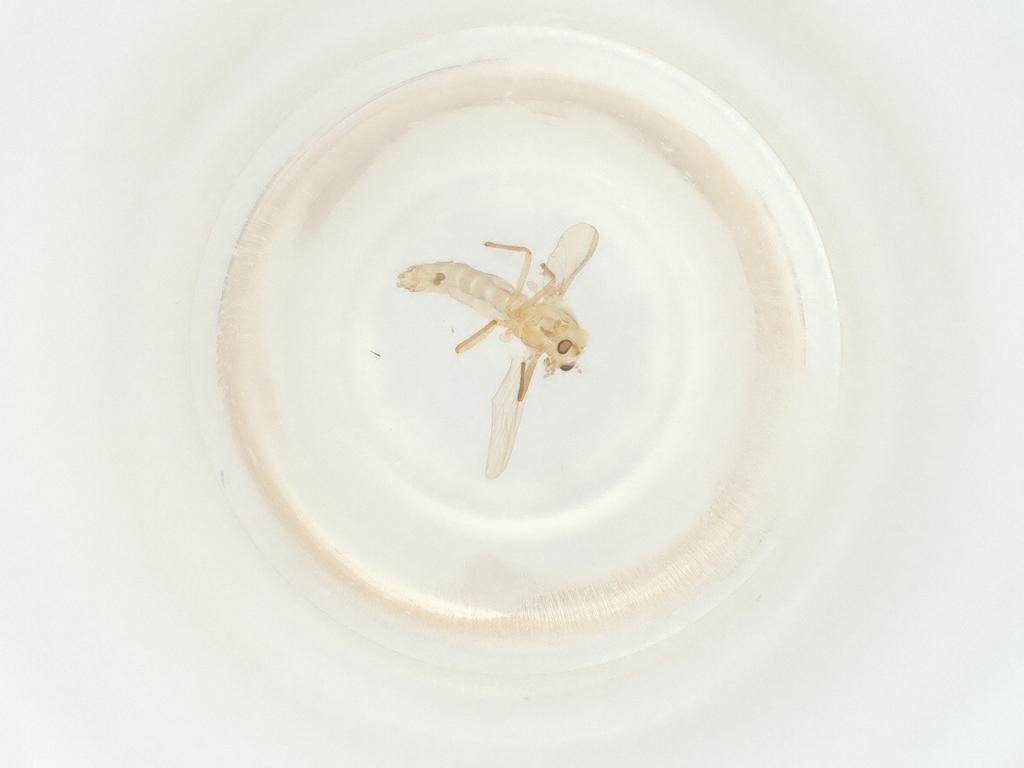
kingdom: Animalia
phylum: Arthropoda
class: Insecta
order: Diptera
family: Chironomidae
